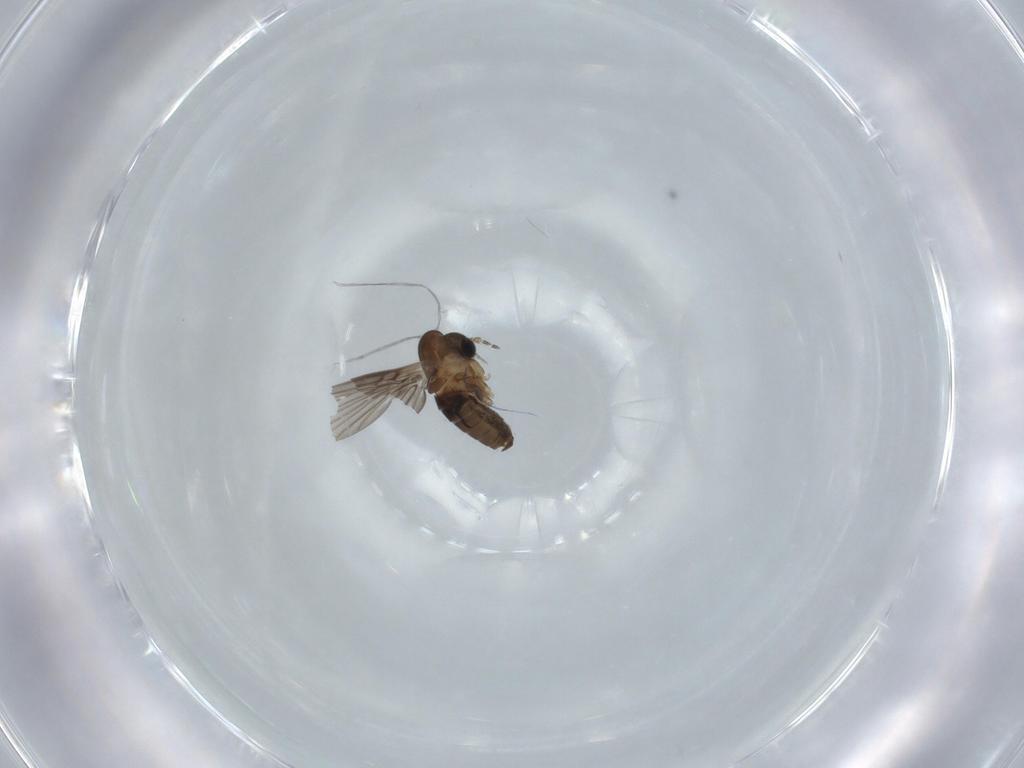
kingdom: Animalia
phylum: Arthropoda
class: Insecta
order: Diptera
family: Psychodidae
